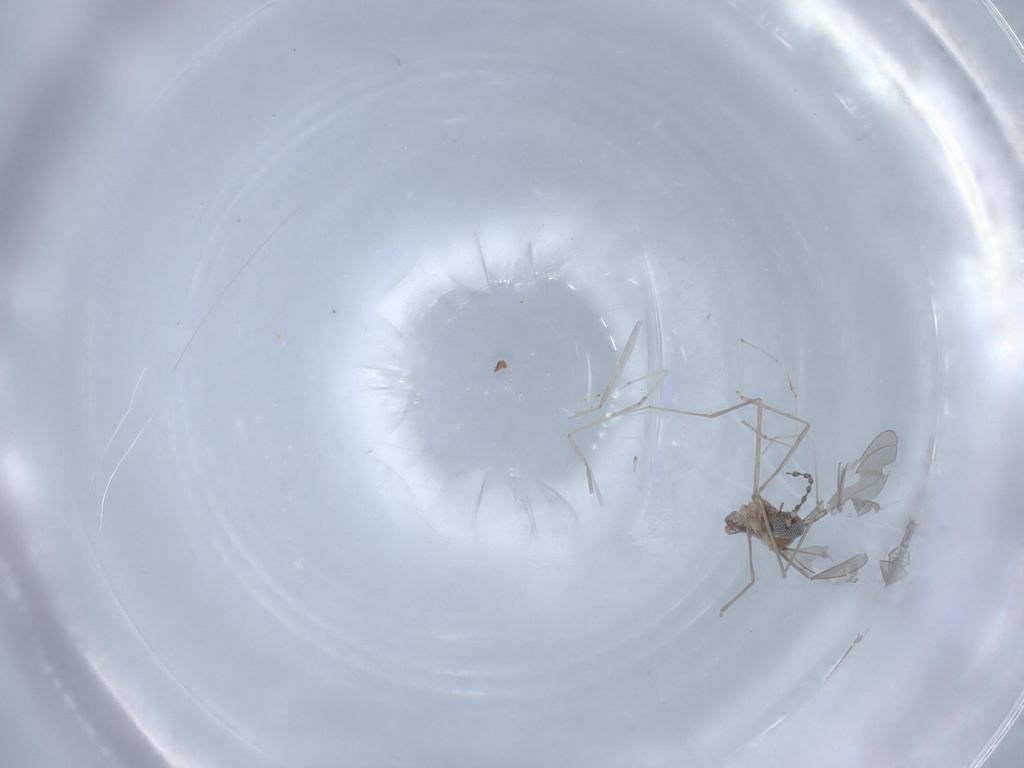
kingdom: Animalia
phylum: Arthropoda
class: Insecta
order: Diptera
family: Cecidomyiidae
